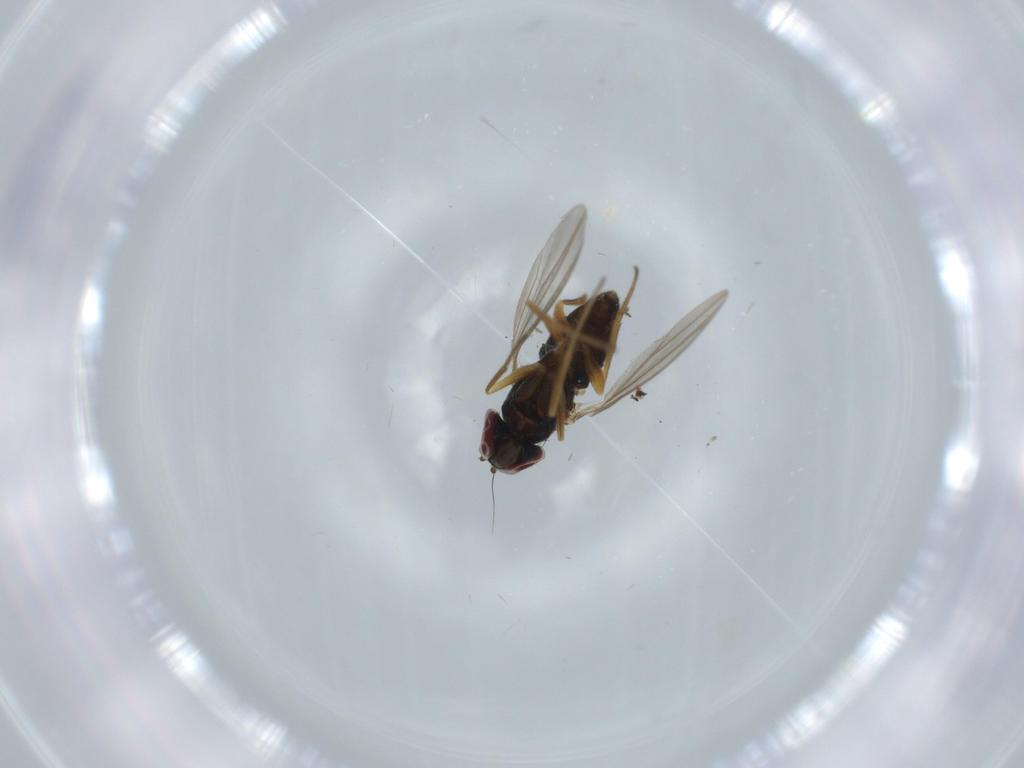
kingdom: Animalia
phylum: Arthropoda
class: Insecta
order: Diptera
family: Dolichopodidae
